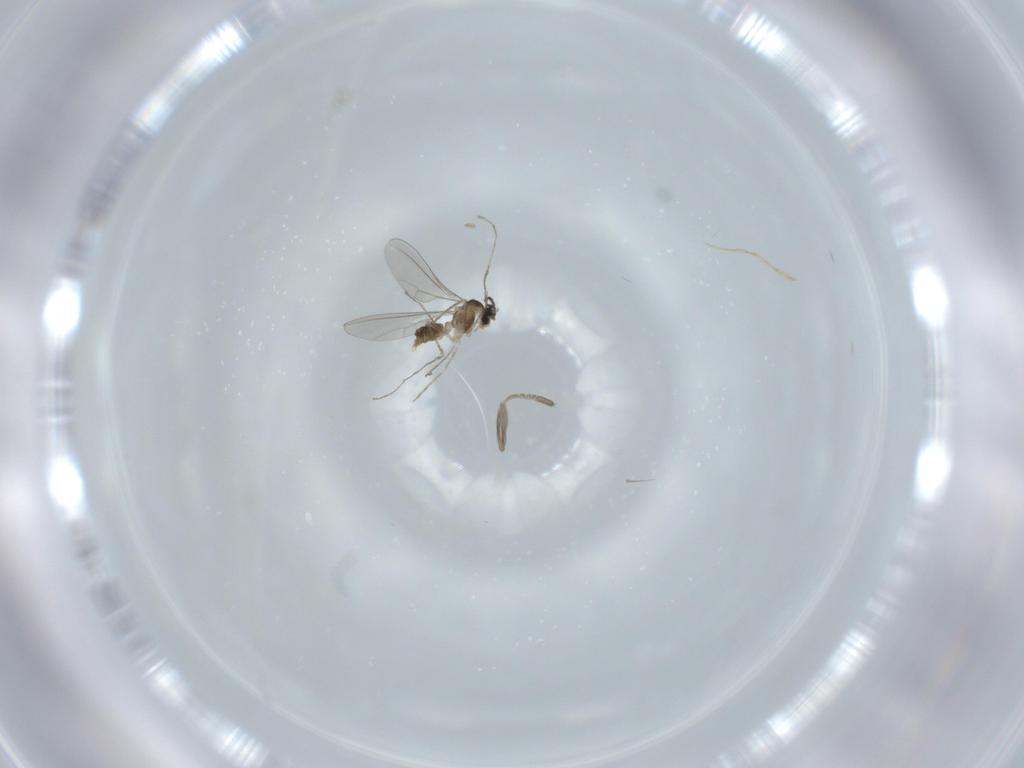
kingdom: Animalia
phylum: Arthropoda
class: Insecta
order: Diptera
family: Cecidomyiidae
